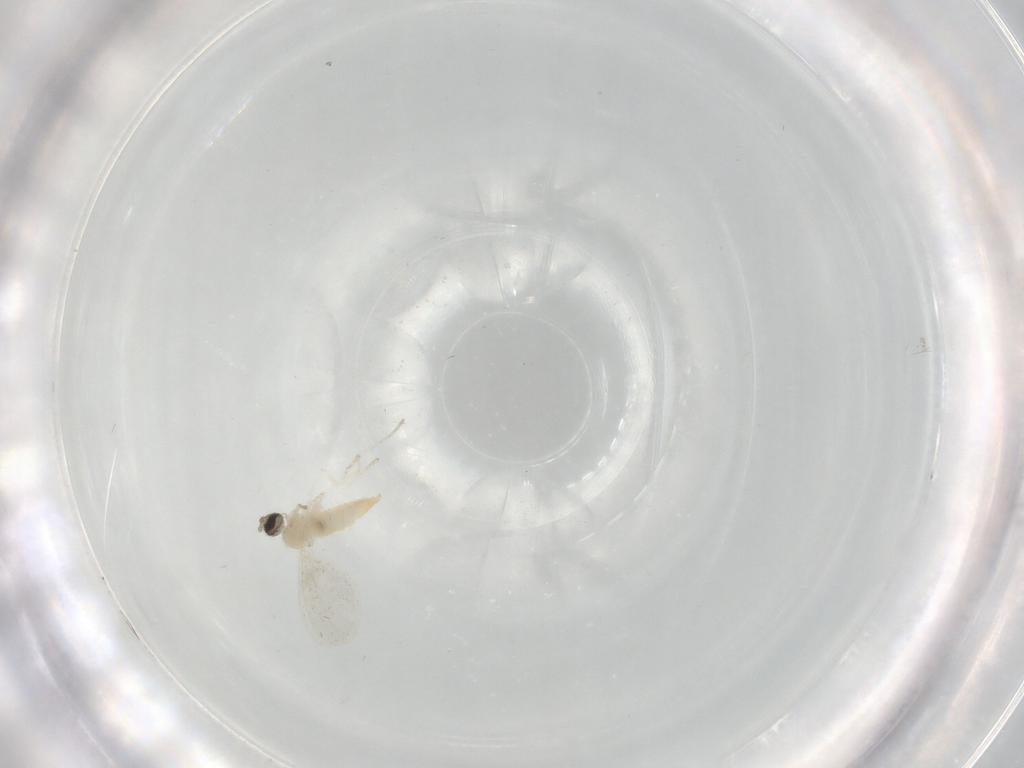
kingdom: Animalia
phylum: Arthropoda
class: Insecta
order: Diptera
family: Cecidomyiidae
